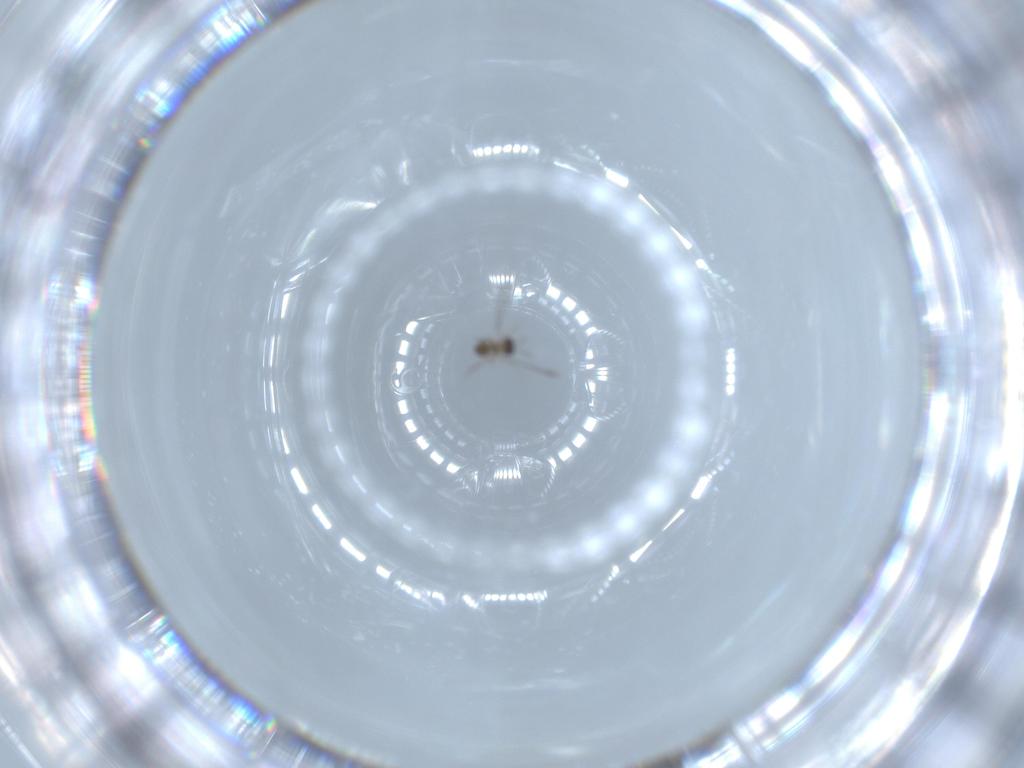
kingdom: Animalia
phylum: Arthropoda
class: Insecta
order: Hymenoptera
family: Mymaridae
